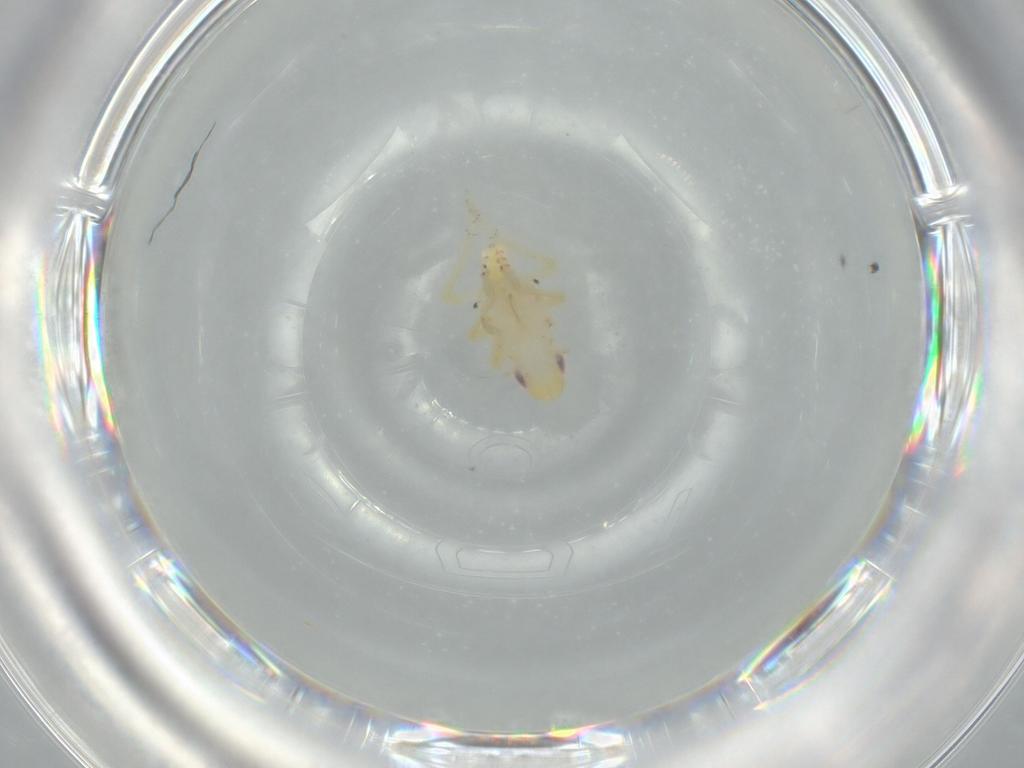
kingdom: Animalia
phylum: Arthropoda
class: Insecta
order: Hemiptera
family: Tropiduchidae
